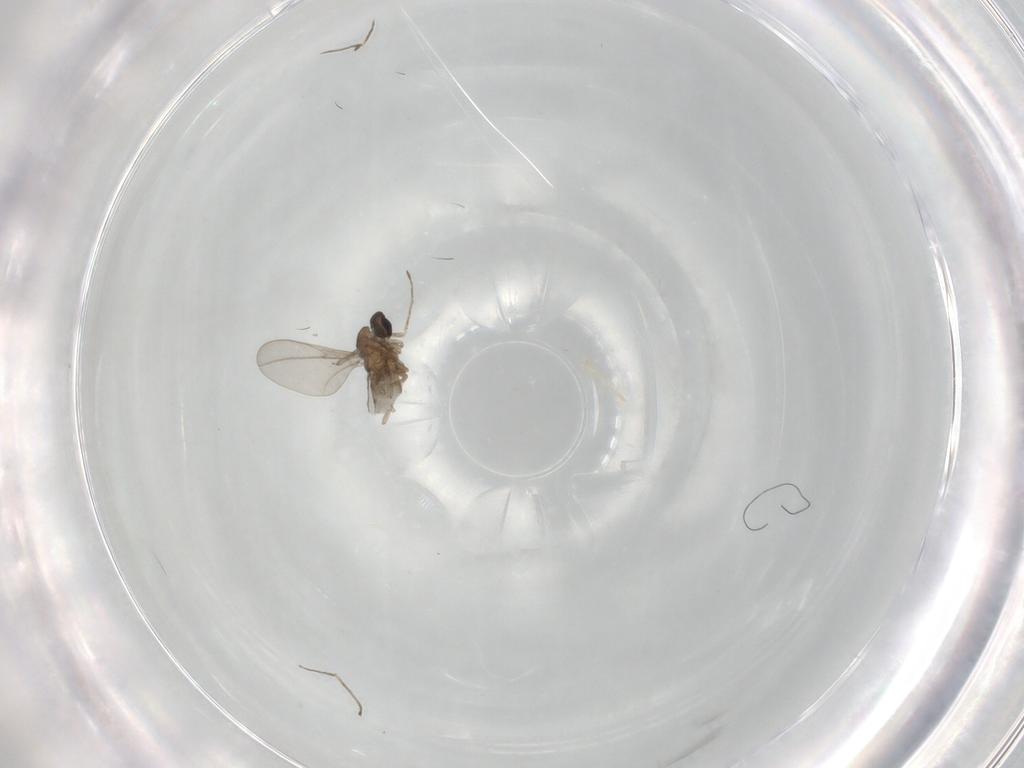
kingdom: Animalia
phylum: Arthropoda
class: Insecta
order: Diptera
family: Cecidomyiidae
